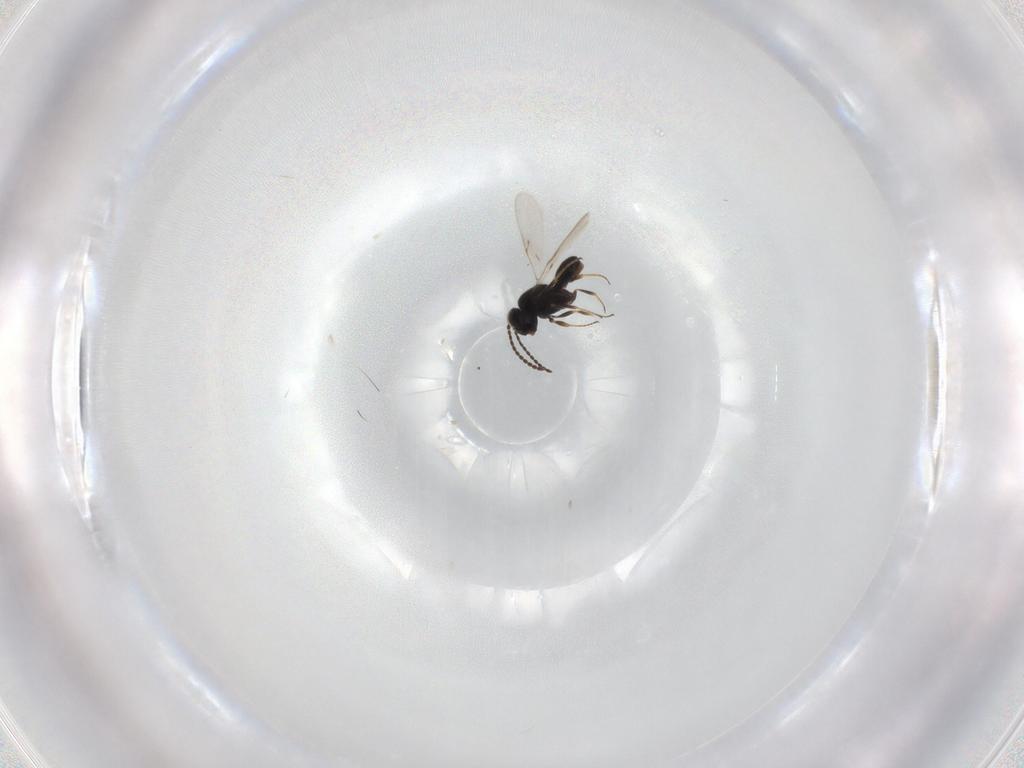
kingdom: Animalia
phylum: Arthropoda
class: Insecta
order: Hymenoptera
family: Scelionidae
